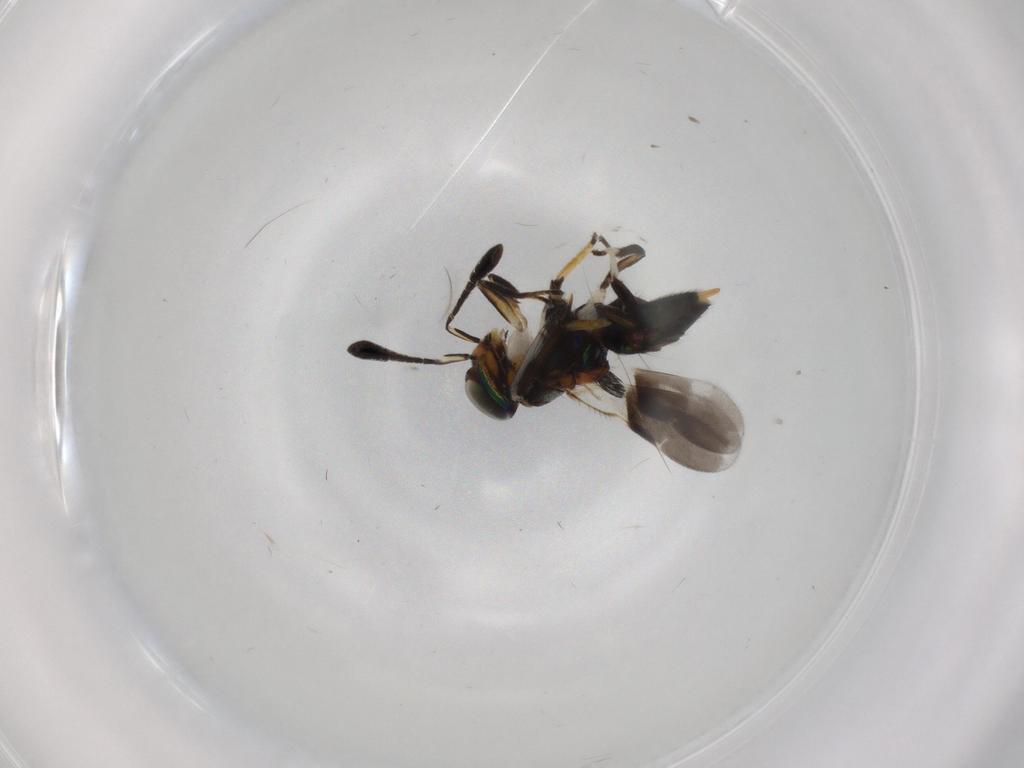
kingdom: Animalia
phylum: Arthropoda
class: Insecta
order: Hymenoptera
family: Encyrtidae
